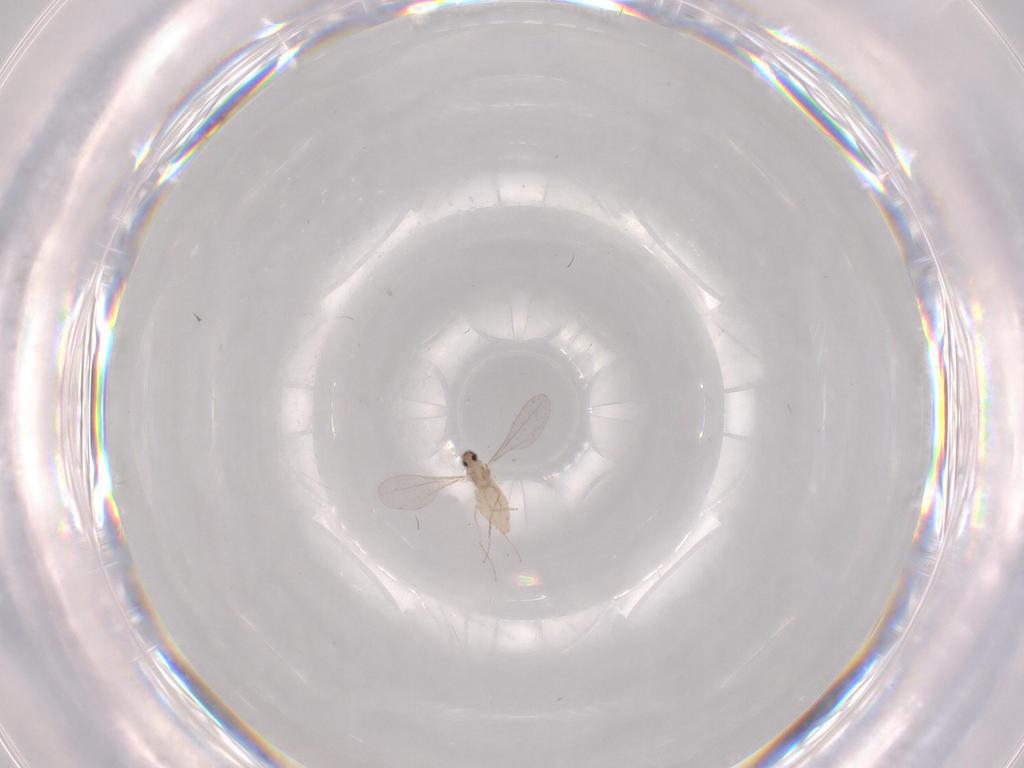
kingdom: Animalia
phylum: Arthropoda
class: Insecta
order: Diptera
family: Cecidomyiidae
